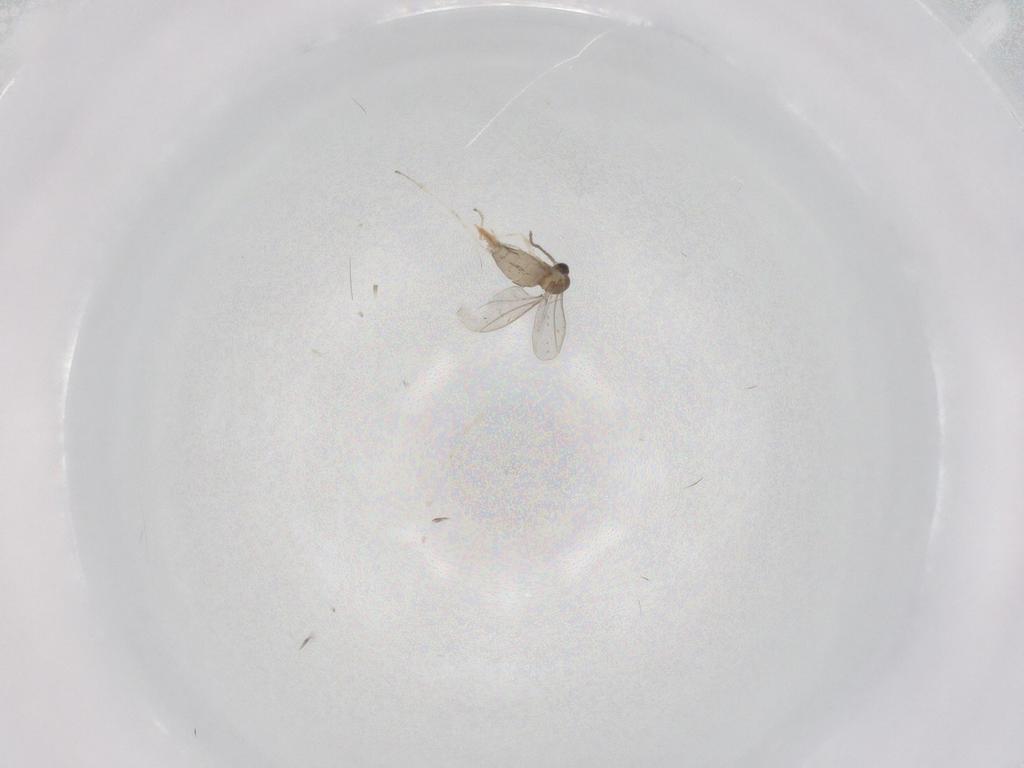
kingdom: Animalia
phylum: Arthropoda
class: Insecta
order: Diptera
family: Cecidomyiidae
